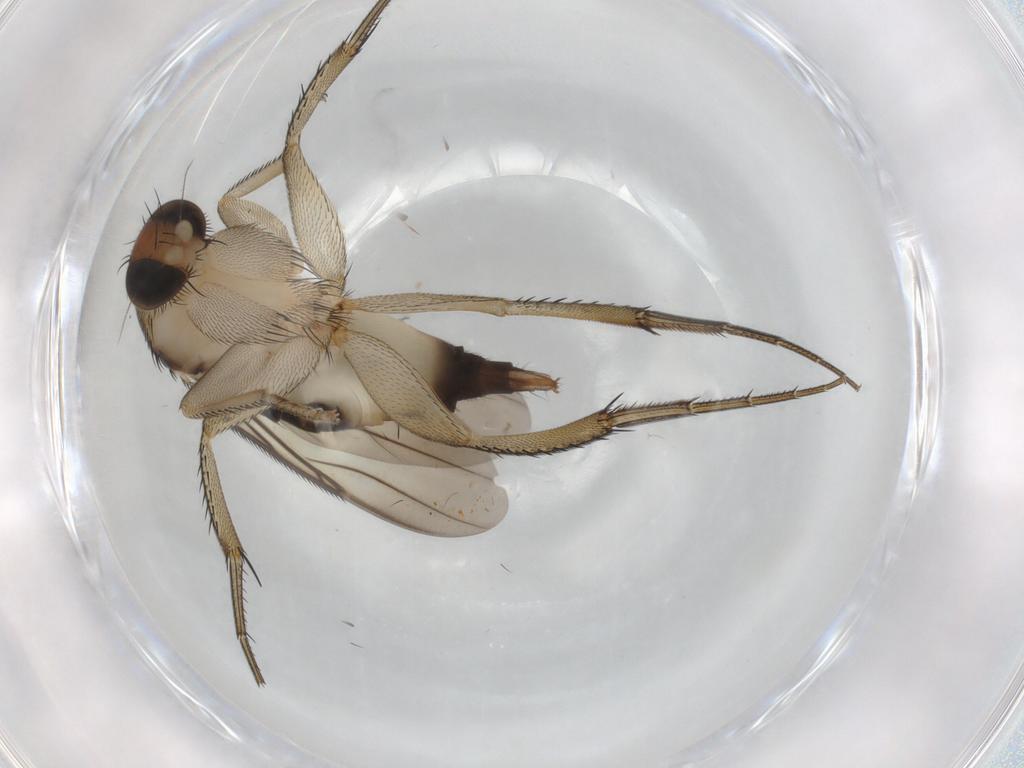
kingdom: Animalia
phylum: Arthropoda
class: Insecta
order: Diptera
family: Phoridae
